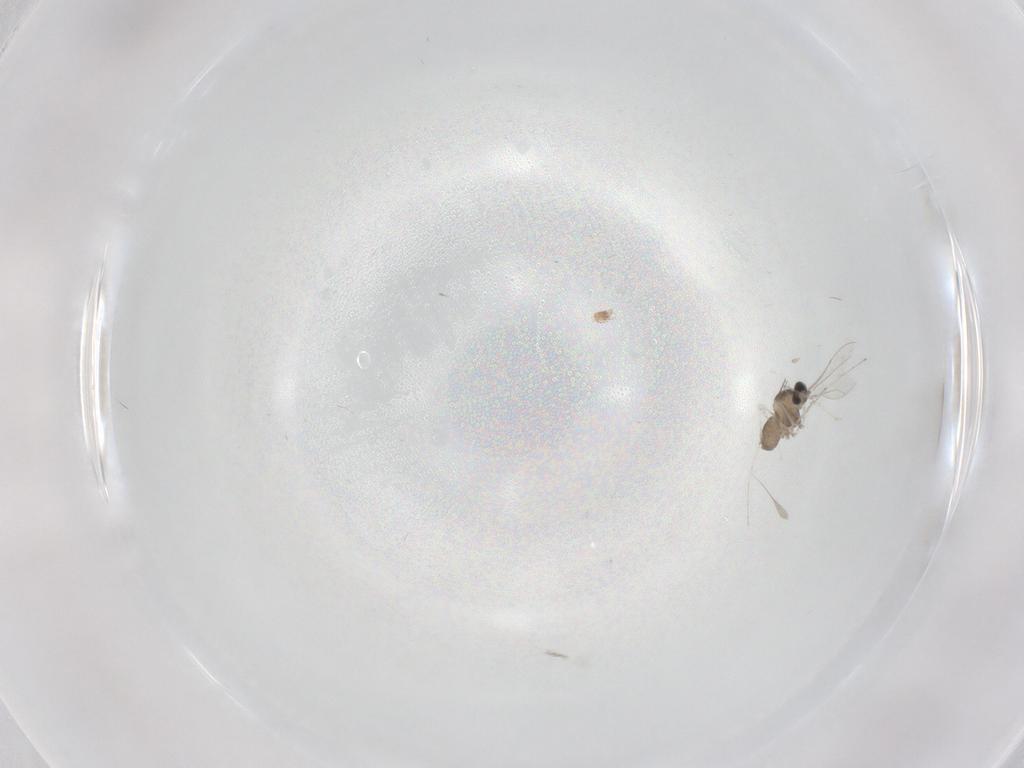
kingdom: Animalia
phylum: Arthropoda
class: Insecta
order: Diptera
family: Cecidomyiidae
